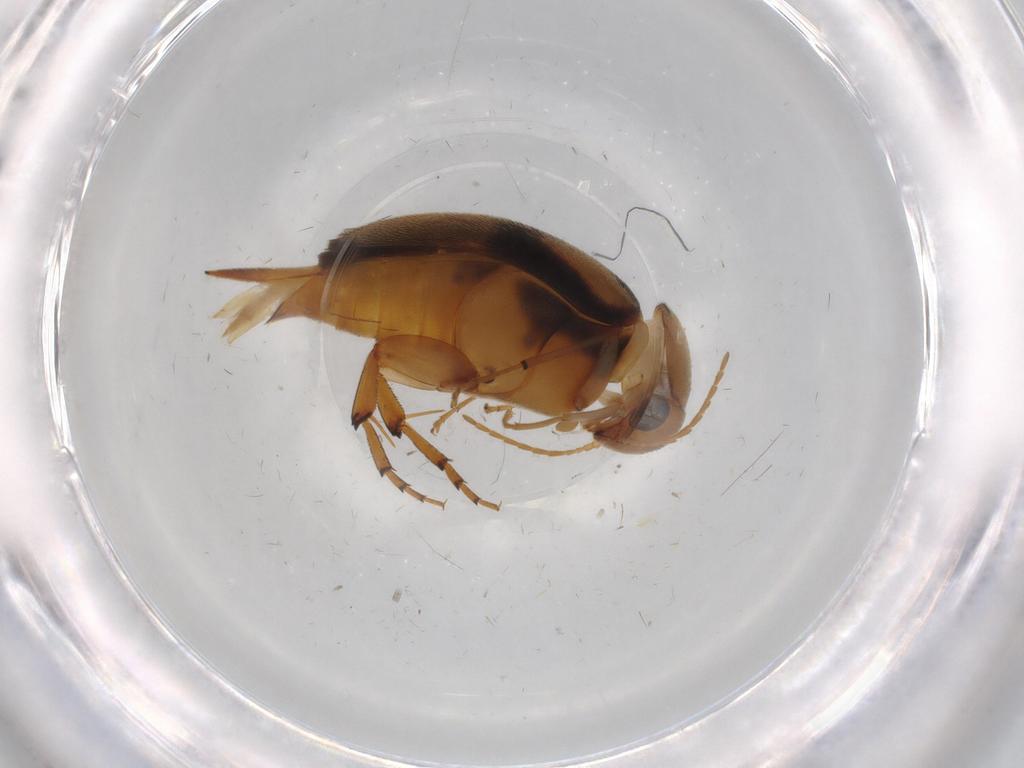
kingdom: Animalia
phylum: Arthropoda
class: Insecta
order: Coleoptera
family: Mordellidae
